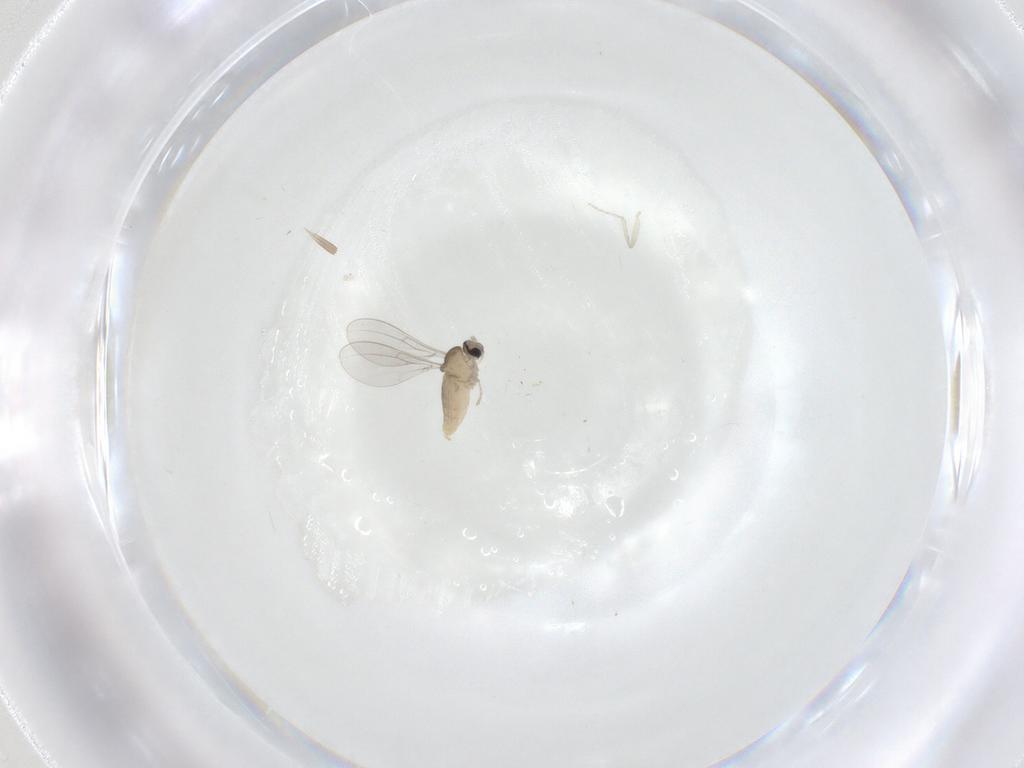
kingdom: Animalia
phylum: Arthropoda
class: Insecta
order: Diptera
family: Cecidomyiidae
